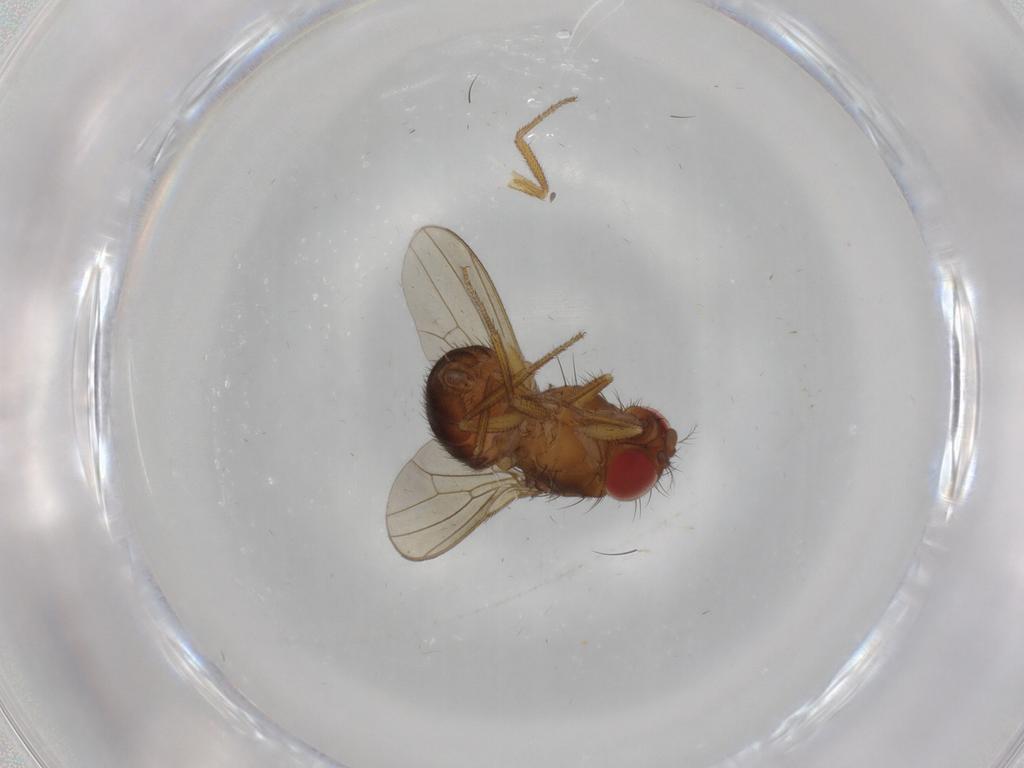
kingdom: Animalia
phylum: Arthropoda
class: Insecta
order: Diptera
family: Drosophilidae
